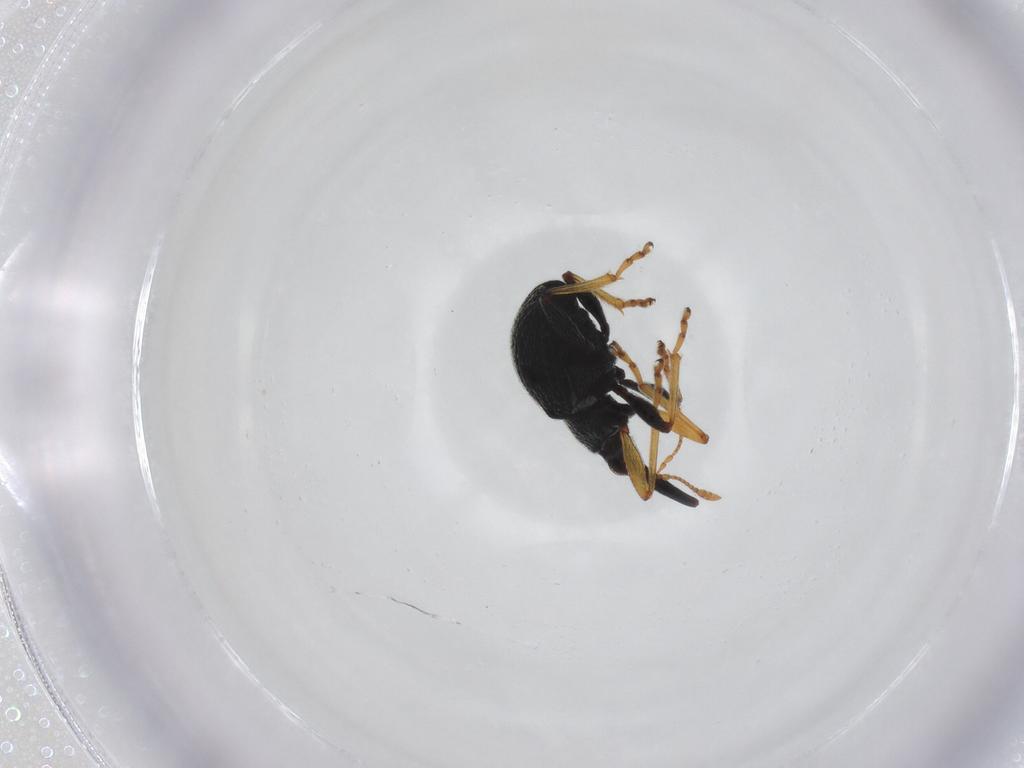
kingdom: Animalia
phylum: Arthropoda
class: Insecta
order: Coleoptera
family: Brentidae
